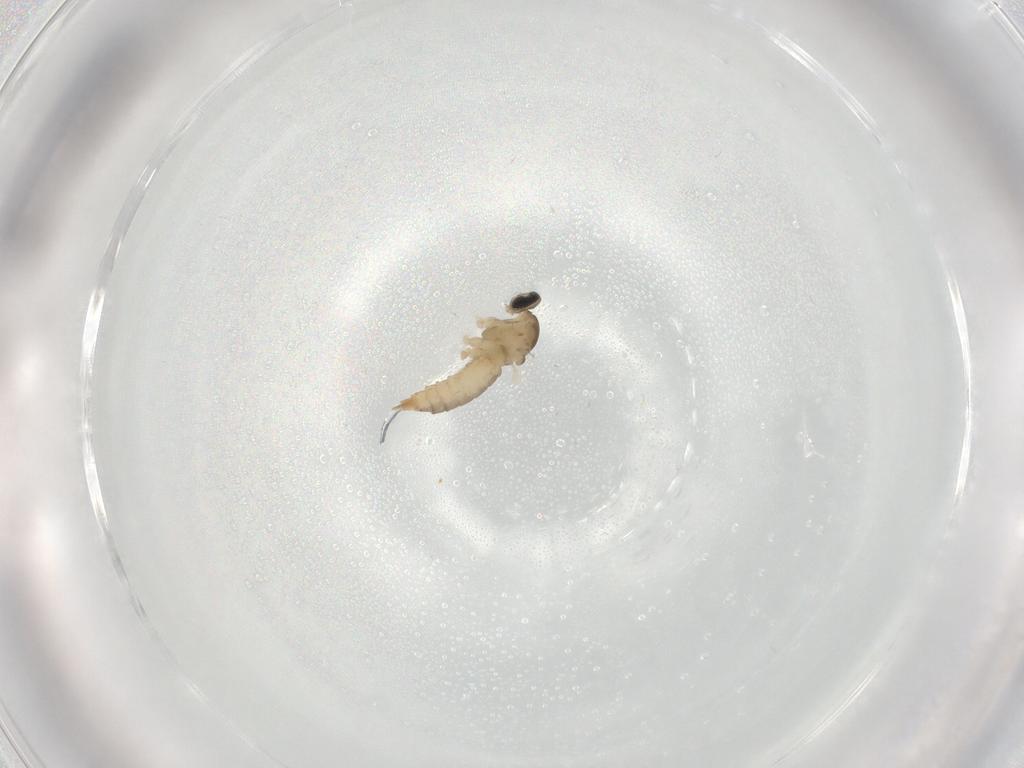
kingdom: Animalia
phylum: Arthropoda
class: Insecta
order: Diptera
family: Cecidomyiidae
